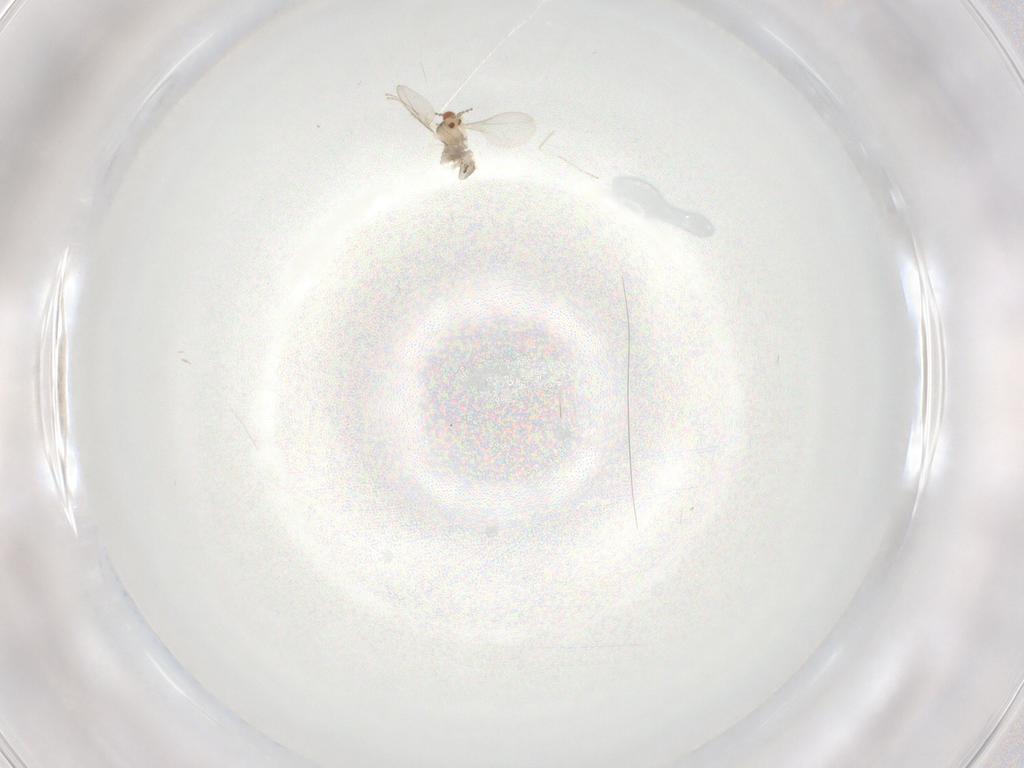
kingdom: Animalia
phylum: Arthropoda
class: Insecta
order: Diptera
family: Cecidomyiidae
